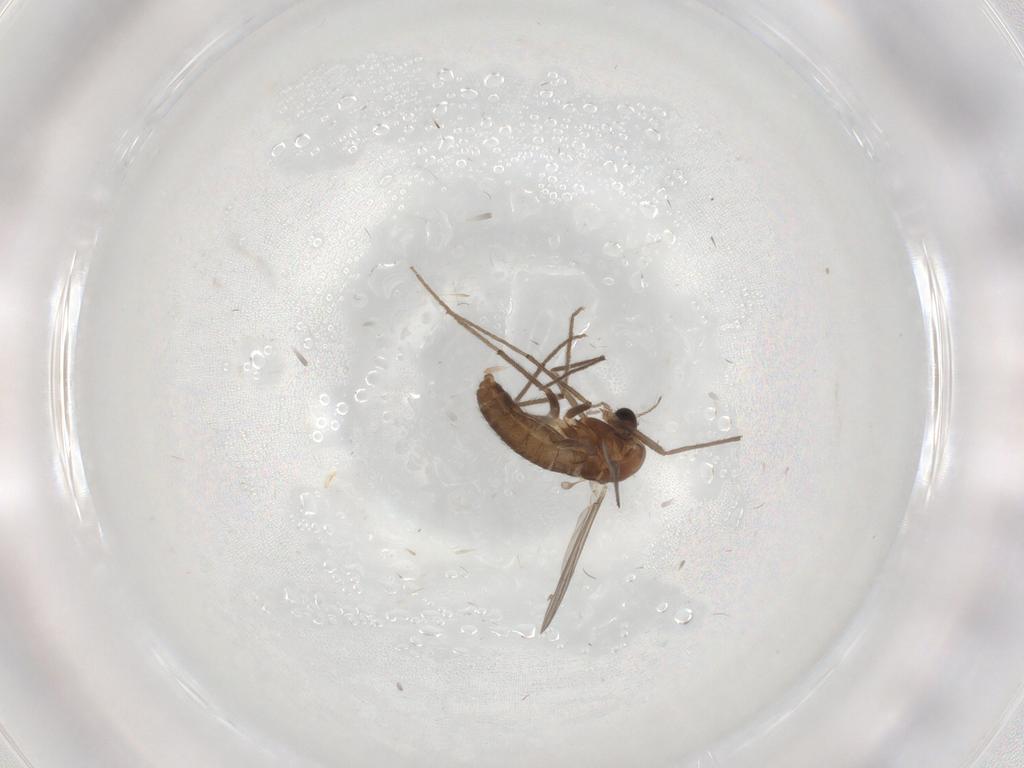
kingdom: Animalia
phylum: Arthropoda
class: Insecta
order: Diptera
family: Chironomidae
